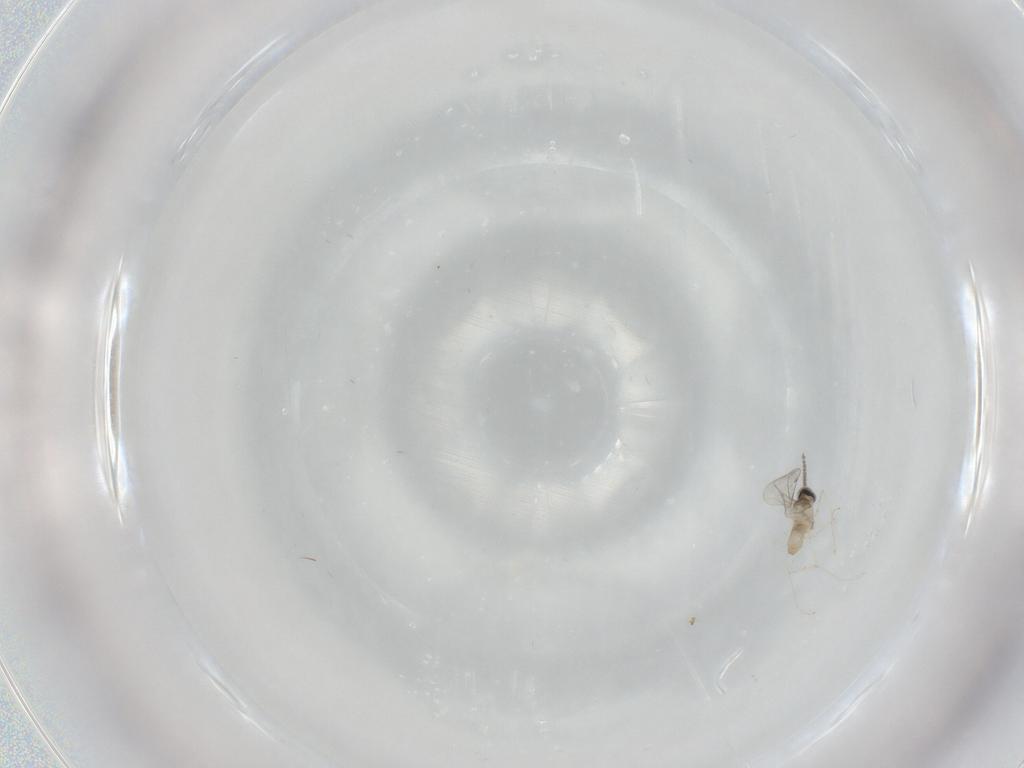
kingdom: Animalia
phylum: Arthropoda
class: Insecta
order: Diptera
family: Cecidomyiidae
